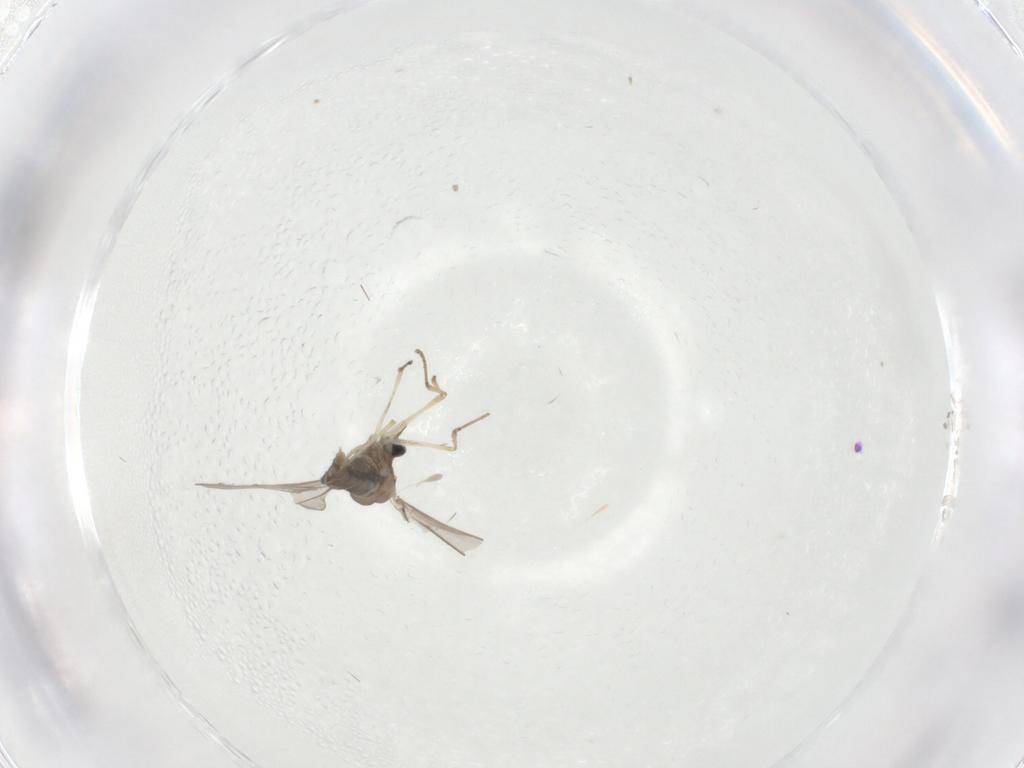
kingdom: Animalia
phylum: Arthropoda
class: Insecta
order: Diptera
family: Cecidomyiidae
